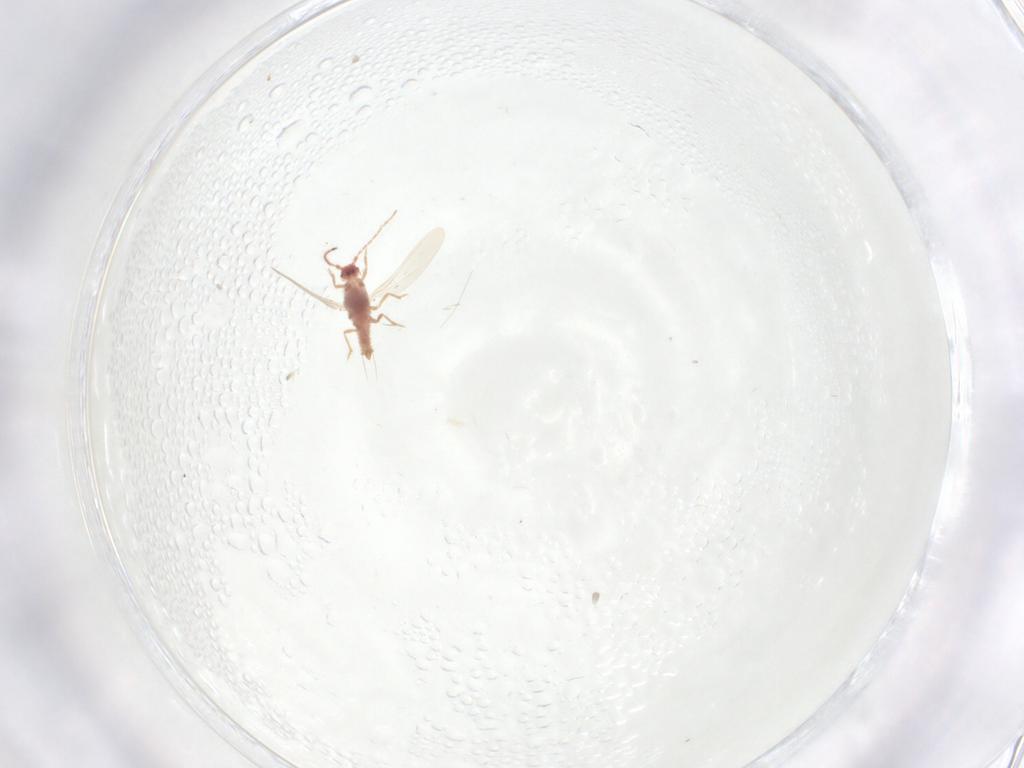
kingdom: Animalia
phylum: Arthropoda
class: Insecta
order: Diptera
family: Limoniidae
